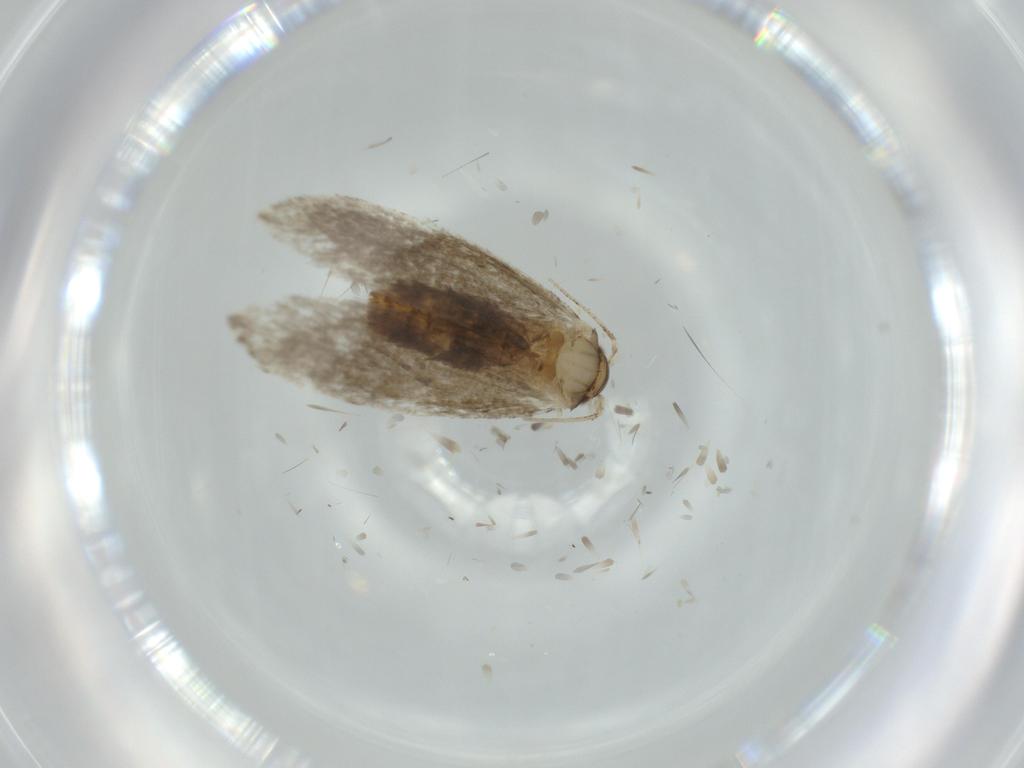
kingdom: Animalia
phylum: Arthropoda
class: Insecta
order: Lepidoptera
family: Tineidae
